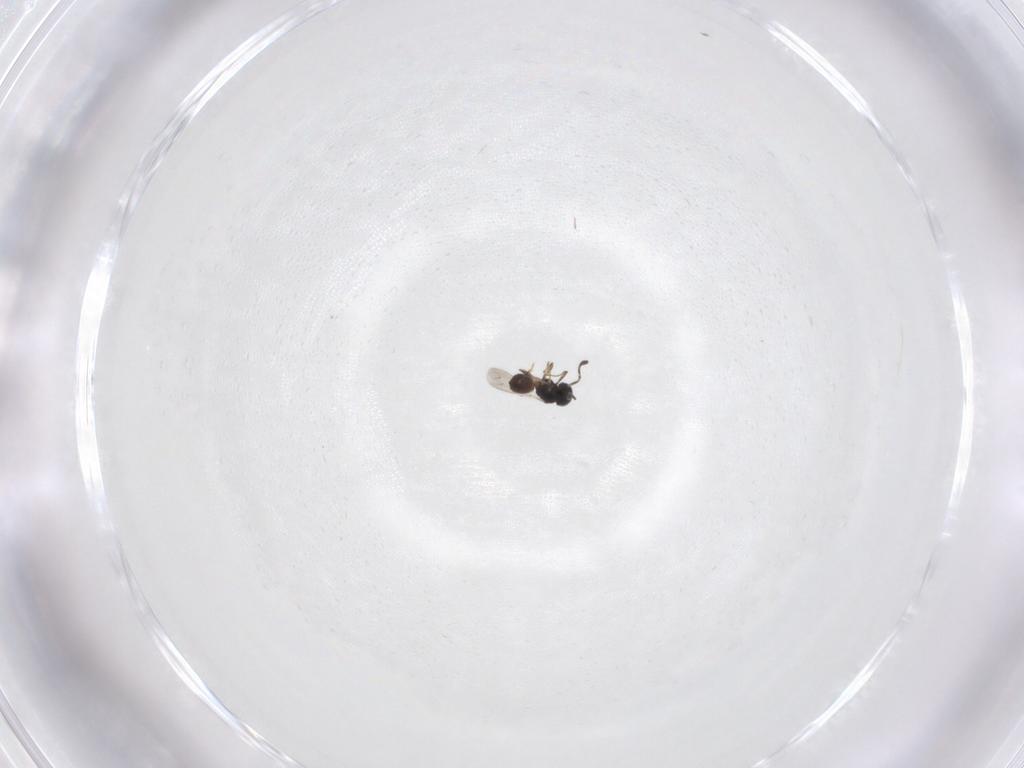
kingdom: Animalia
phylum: Arthropoda
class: Insecta
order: Hymenoptera
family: Scelionidae
